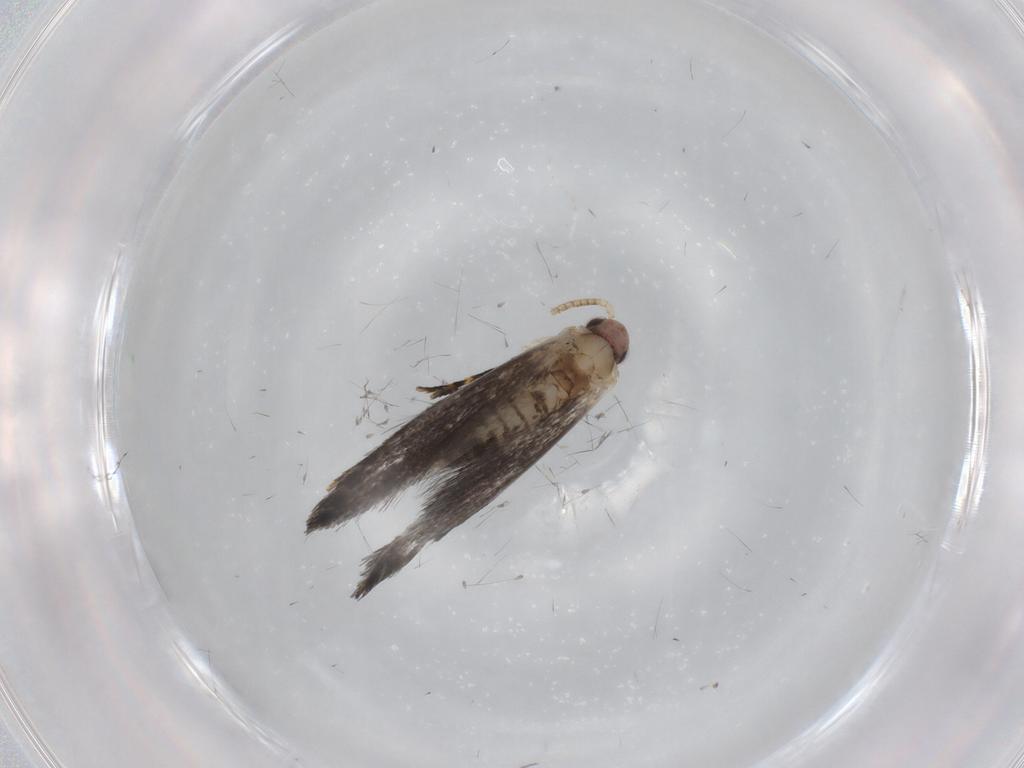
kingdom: Animalia
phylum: Arthropoda
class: Insecta
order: Lepidoptera
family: Tineidae
